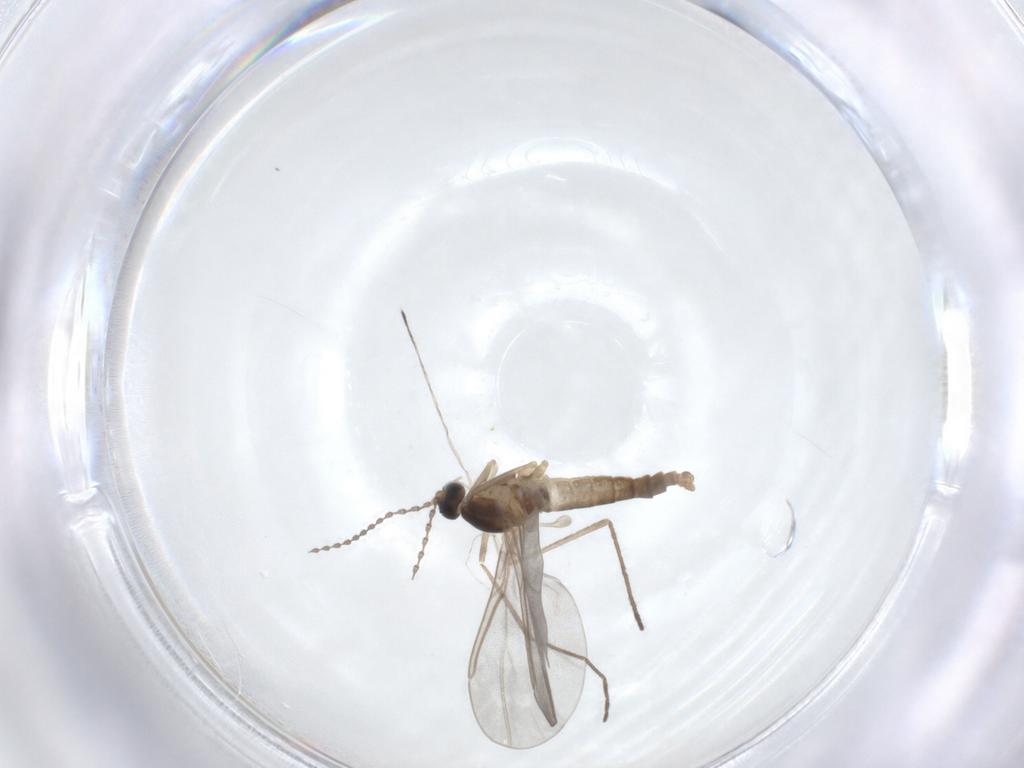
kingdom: Animalia
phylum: Arthropoda
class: Insecta
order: Diptera
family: Cecidomyiidae
